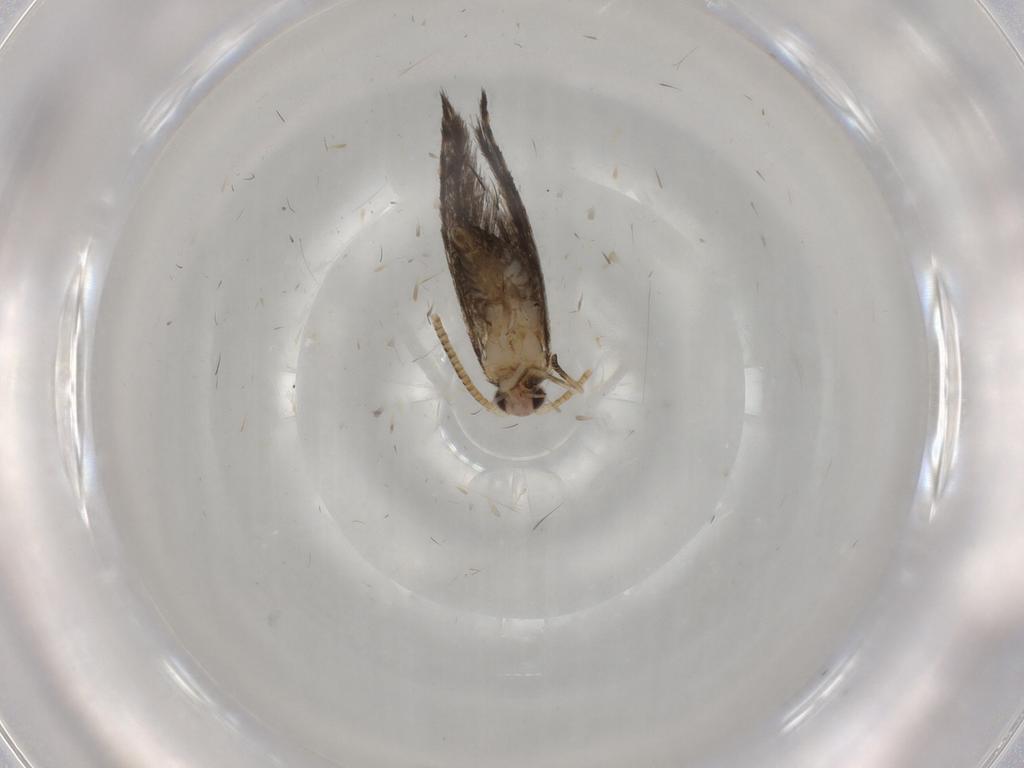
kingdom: Animalia
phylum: Arthropoda
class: Insecta
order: Lepidoptera
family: Tineidae
